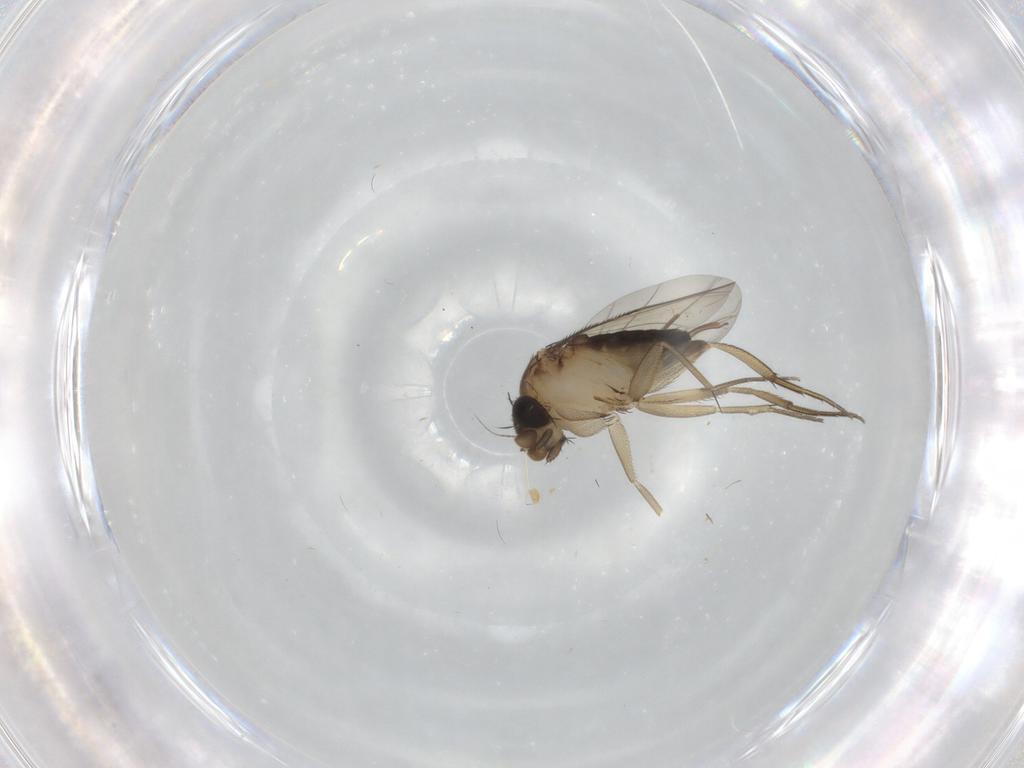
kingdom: Animalia
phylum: Arthropoda
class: Insecta
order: Diptera
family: Phoridae
